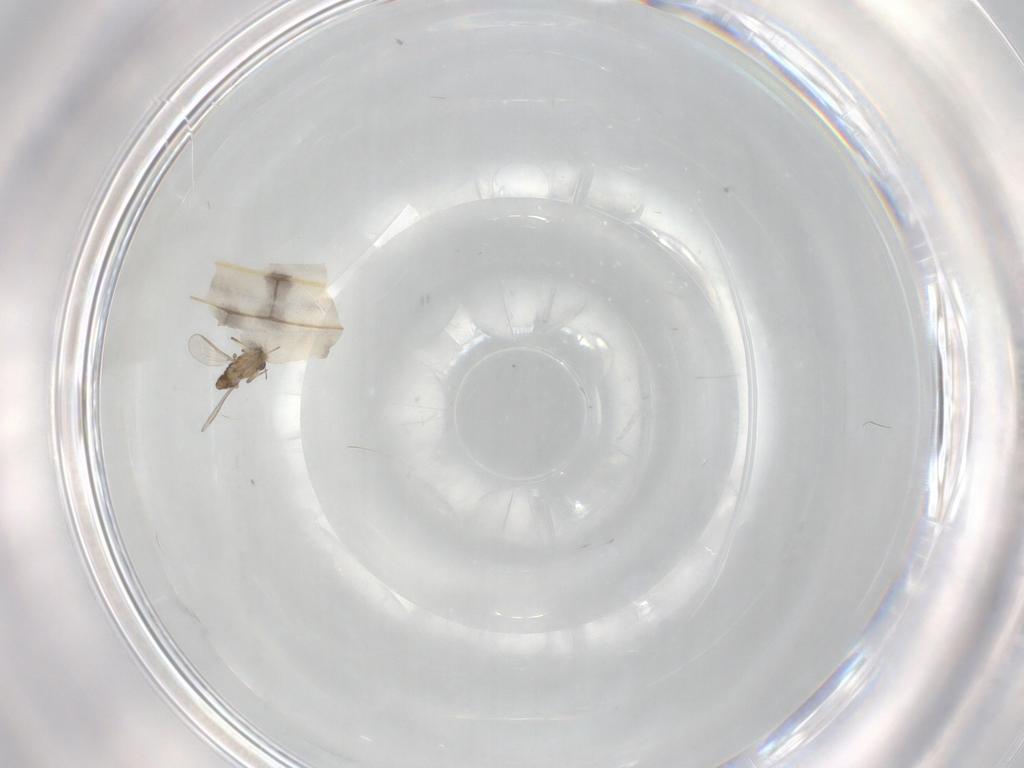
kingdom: Animalia
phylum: Arthropoda
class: Insecta
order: Diptera
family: Limoniidae
